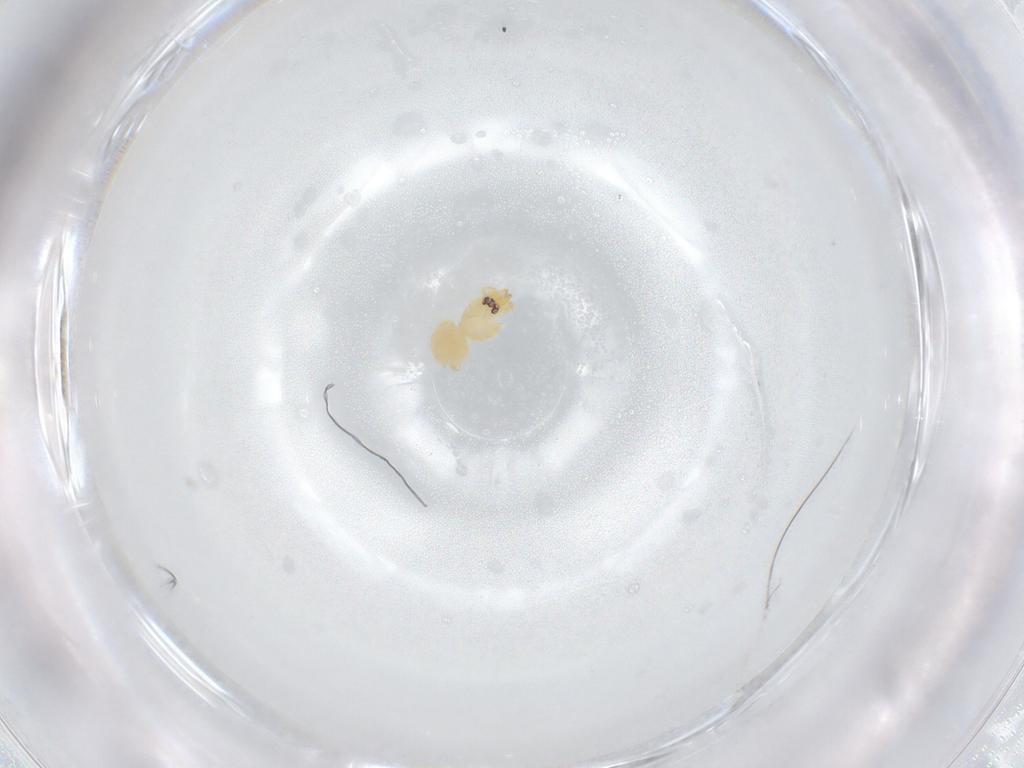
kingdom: Animalia
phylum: Arthropoda
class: Arachnida
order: Araneae
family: Oonopidae
